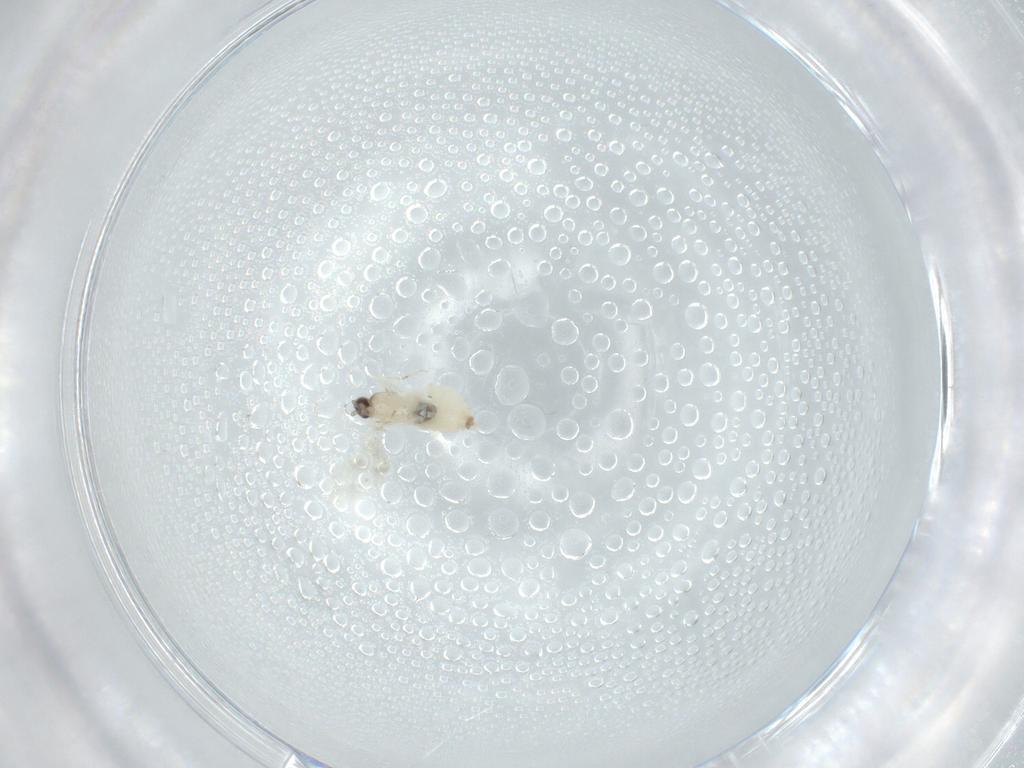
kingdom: Animalia
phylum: Arthropoda
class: Insecta
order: Diptera
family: Cecidomyiidae
